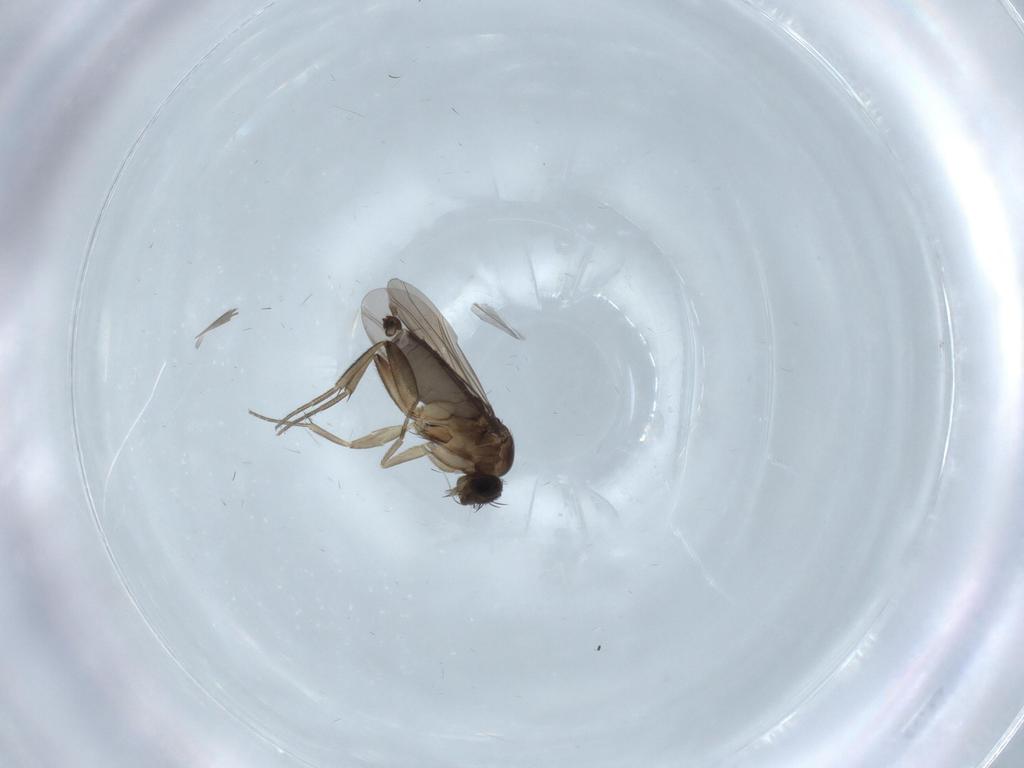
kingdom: Animalia
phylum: Arthropoda
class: Insecta
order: Diptera
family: Phoridae
